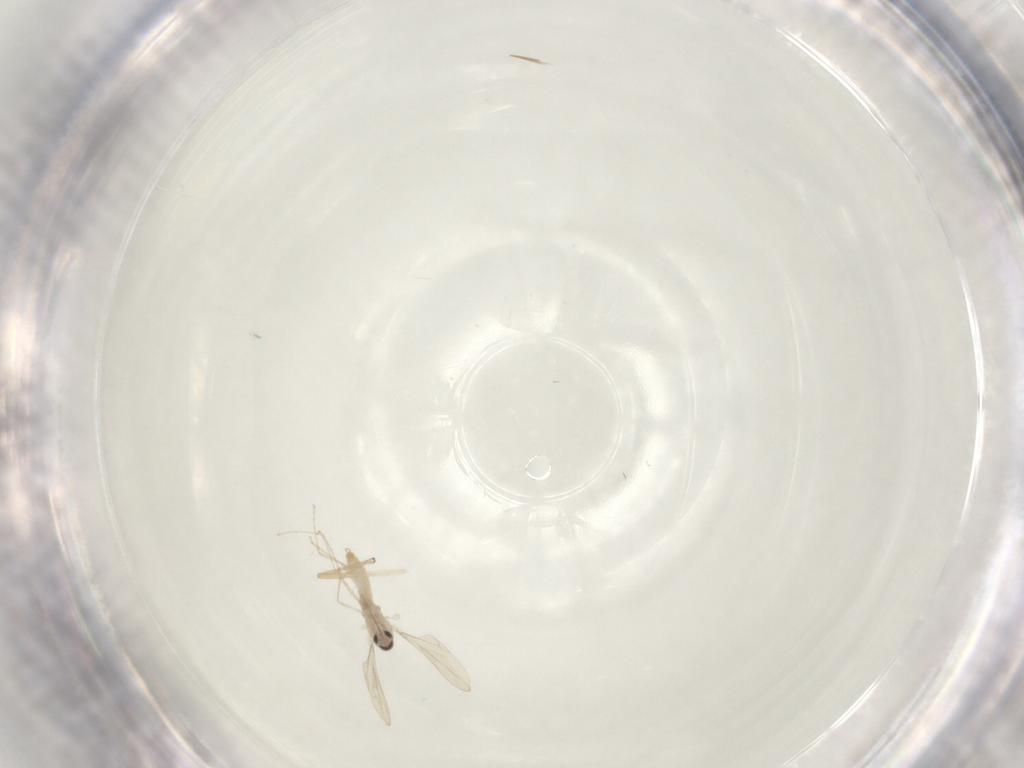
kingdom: Animalia
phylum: Arthropoda
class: Insecta
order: Diptera
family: Cecidomyiidae
